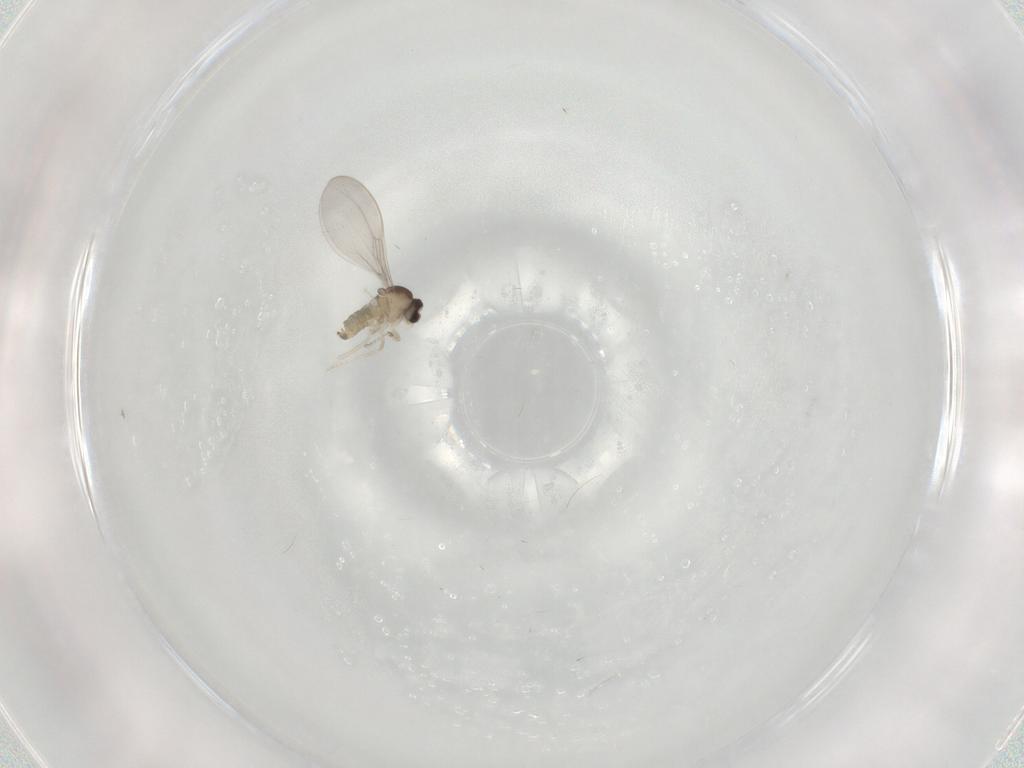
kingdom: Animalia
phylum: Arthropoda
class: Insecta
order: Diptera
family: Cecidomyiidae
